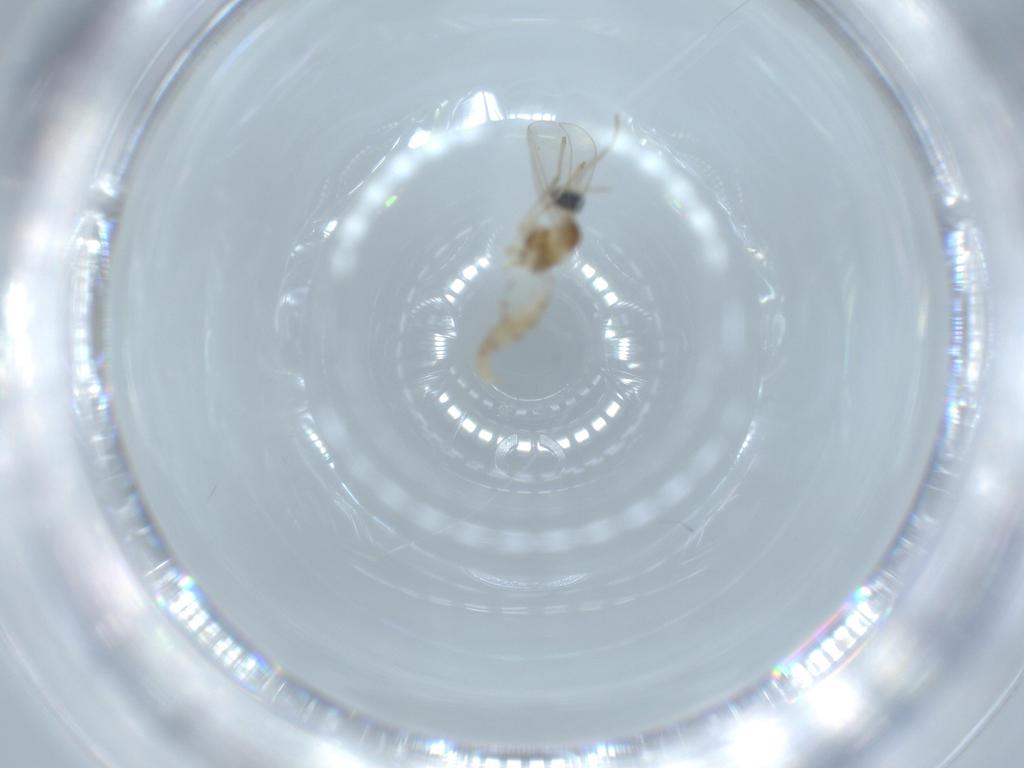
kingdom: Animalia
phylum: Arthropoda
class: Insecta
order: Diptera
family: Cecidomyiidae
